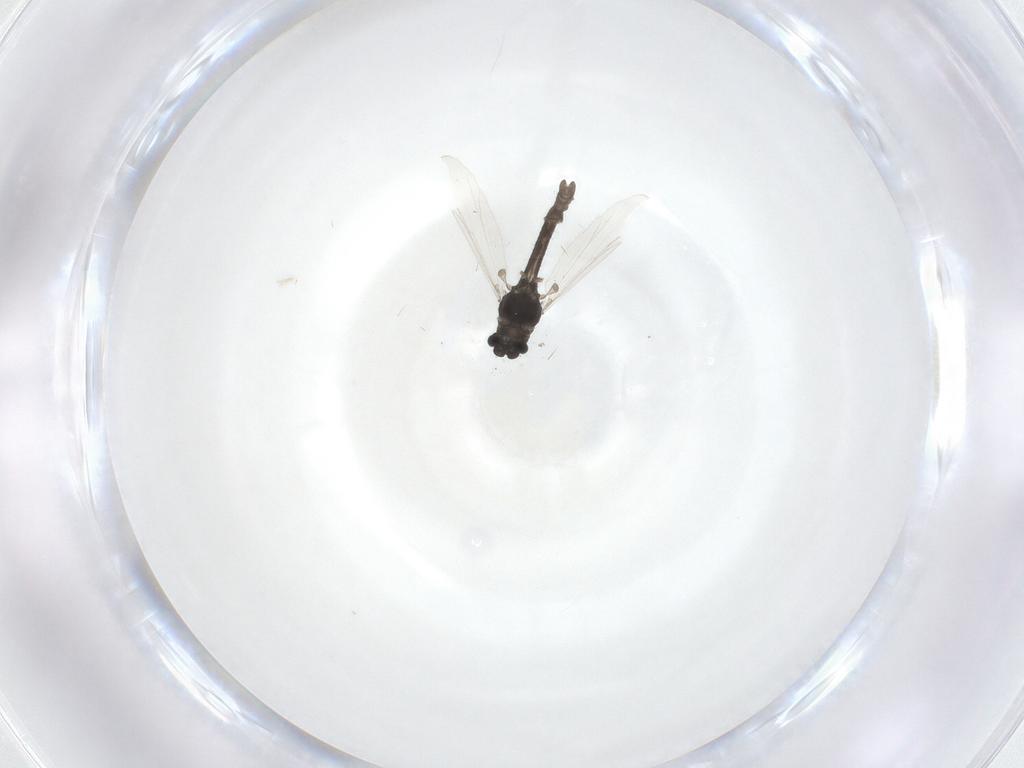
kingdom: Animalia
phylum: Arthropoda
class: Insecta
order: Diptera
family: Chironomidae
